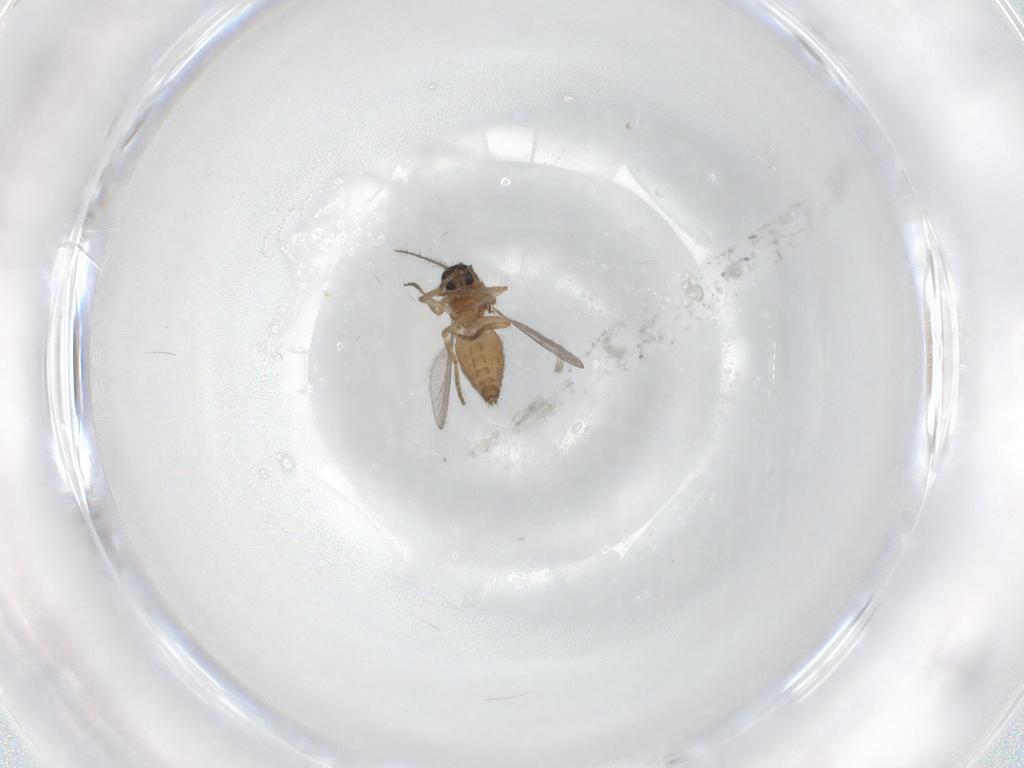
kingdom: Animalia
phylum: Arthropoda
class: Insecta
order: Diptera
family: Ceratopogonidae
